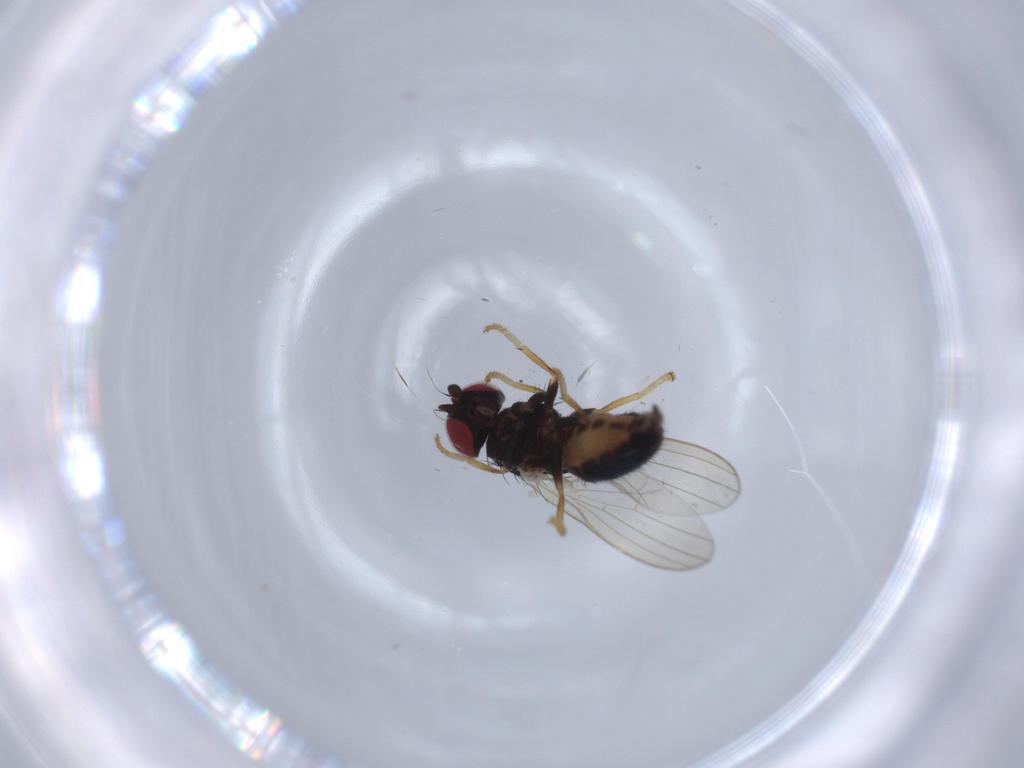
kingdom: Animalia
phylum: Arthropoda
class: Insecta
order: Diptera
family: Chamaemyiidae
